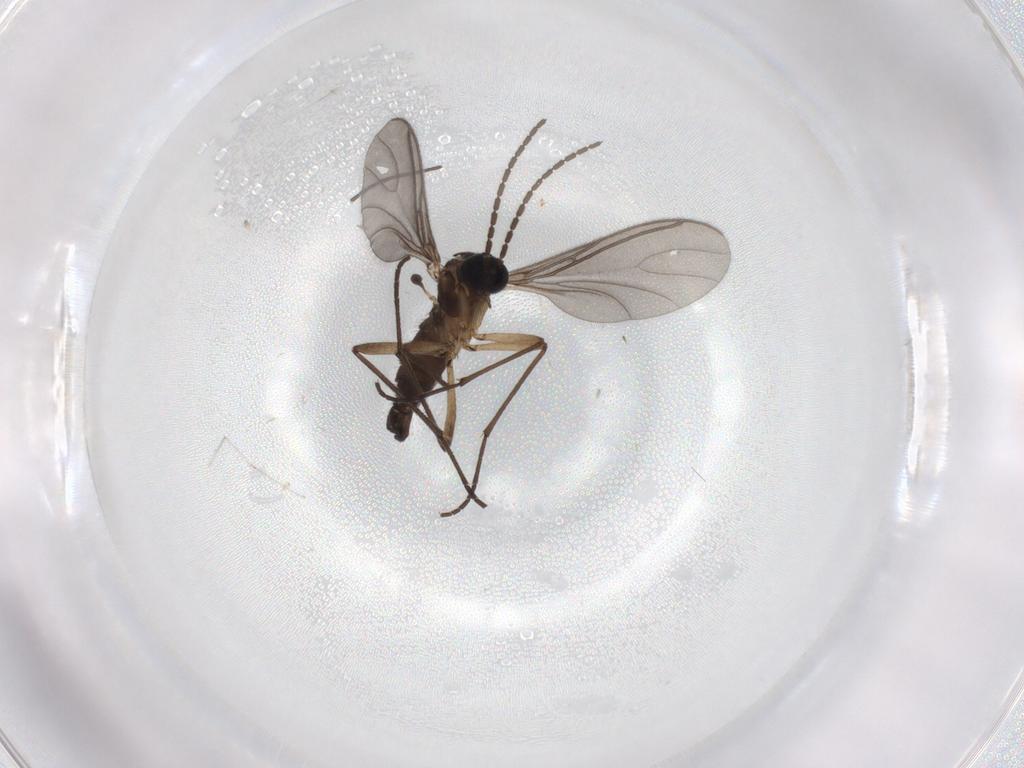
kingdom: Animalia
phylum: Arthropoda
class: Insecta
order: Diptera
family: Sciaridae
